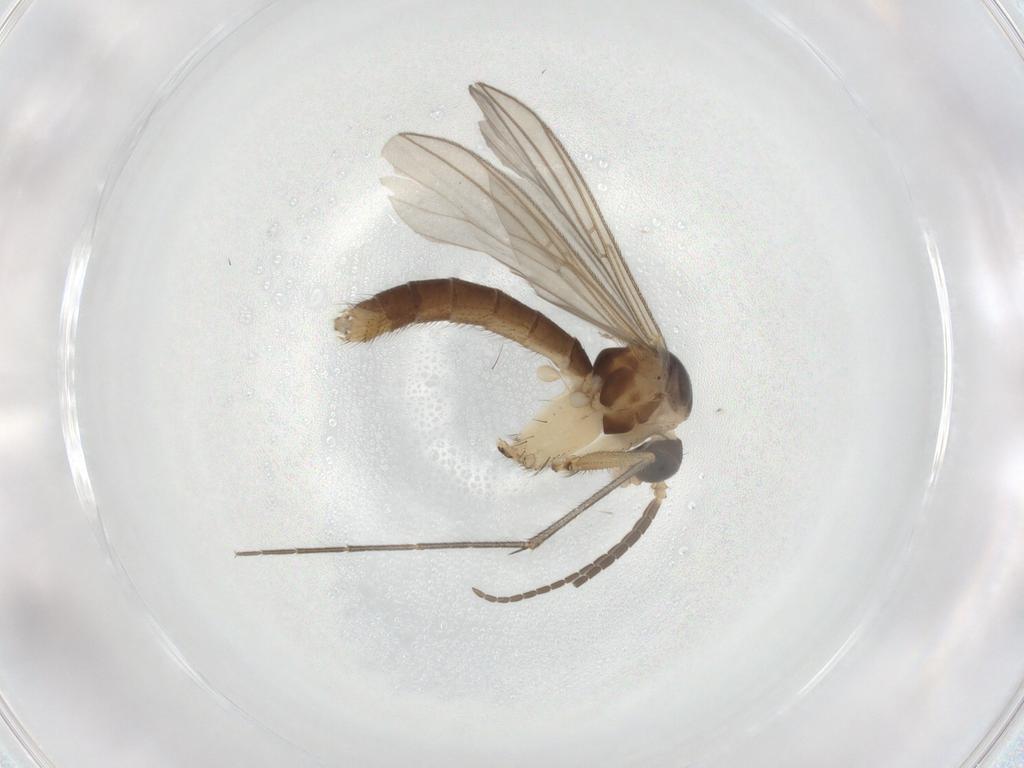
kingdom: Animalia
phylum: Arthropoda
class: Insecta
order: Diptera
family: Mycetophilidae
